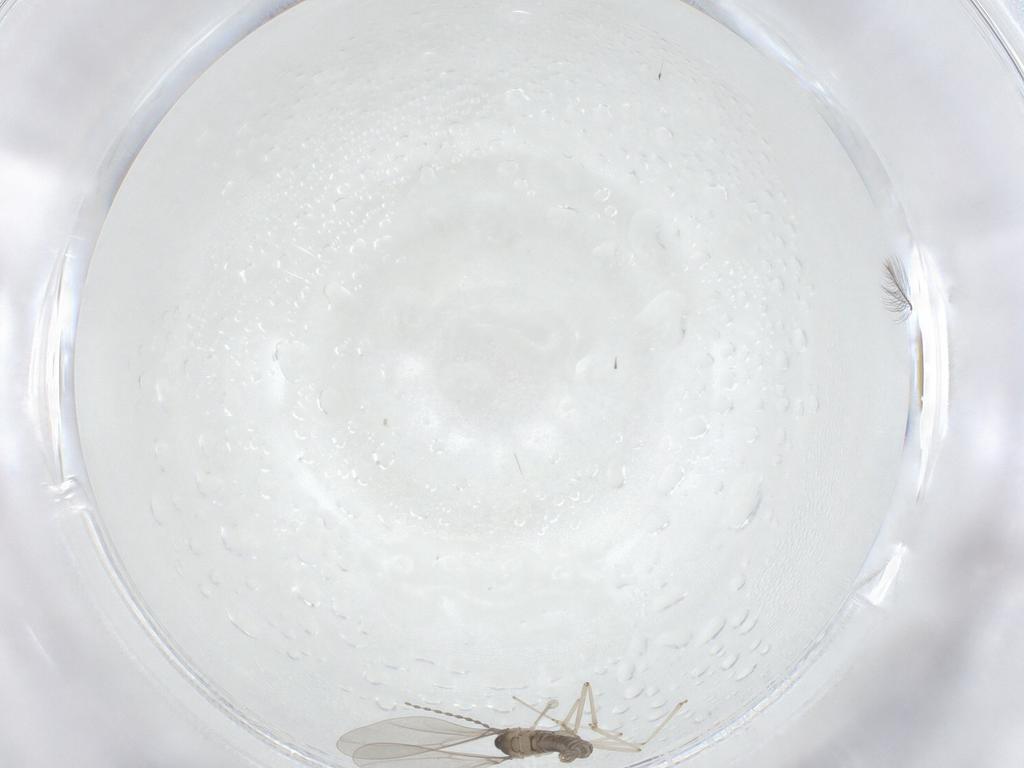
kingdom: Animalia
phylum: Arthropoda
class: Insecta
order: Diptera
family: Cecidomyiidae
